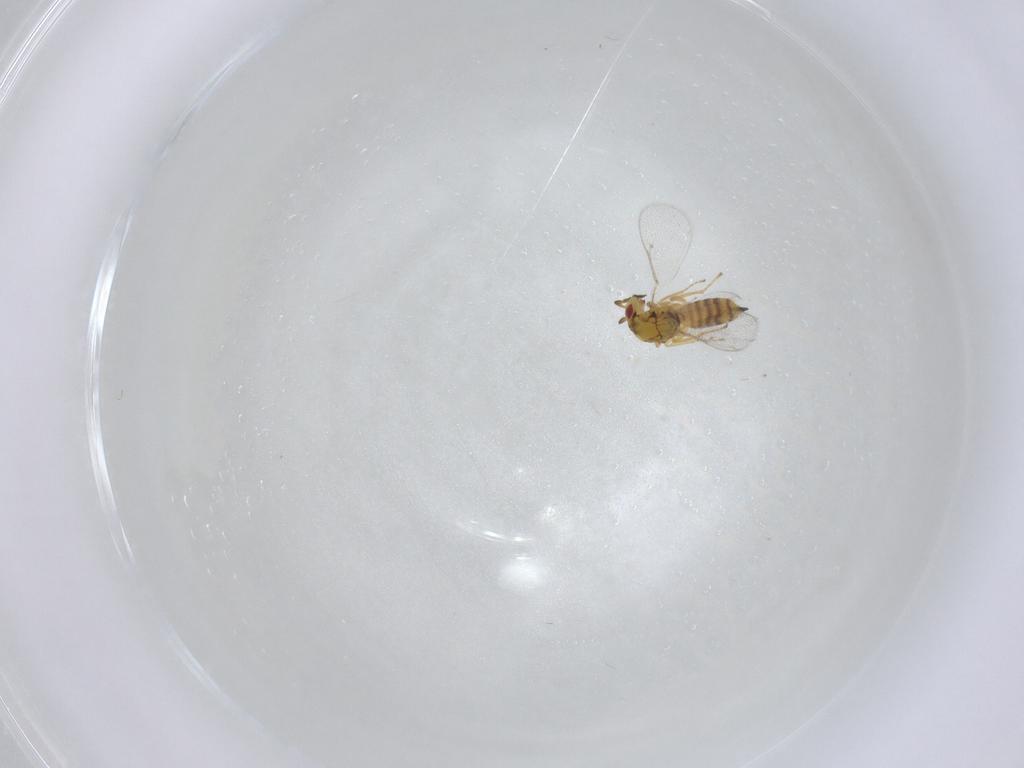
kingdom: Animalia
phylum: Arthropoda
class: Insecta
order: Hymenoptera
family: Eulophidae
